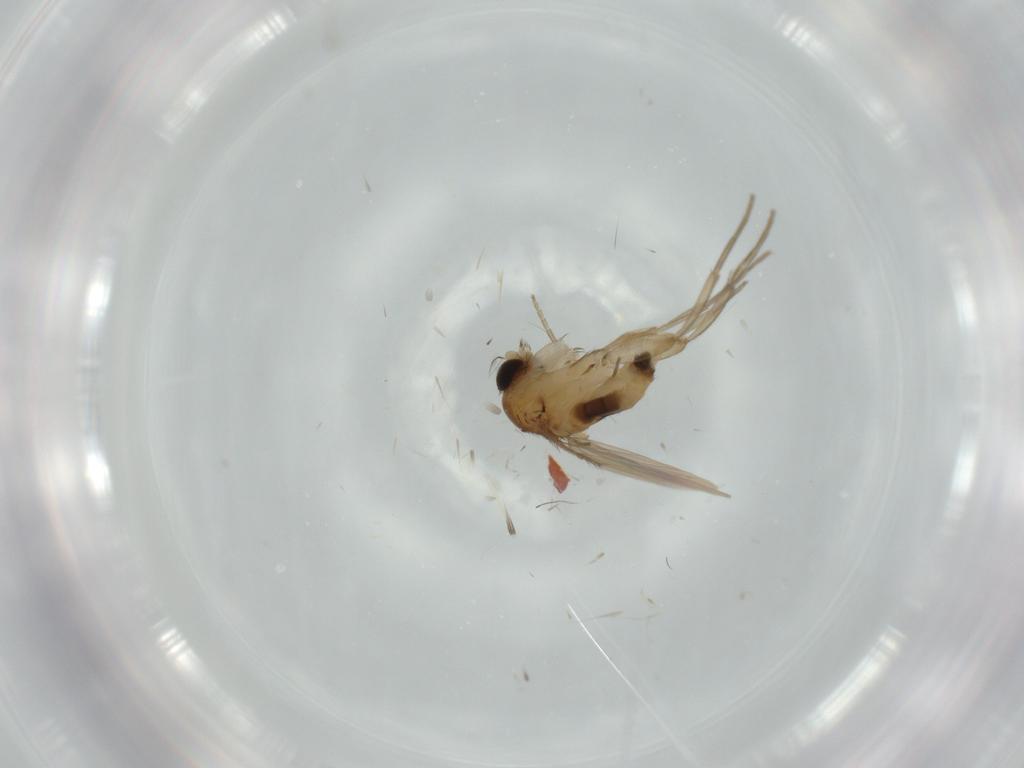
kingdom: Animalia
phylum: Arthropoda
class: Insecta
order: Diptera
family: Phoridae
